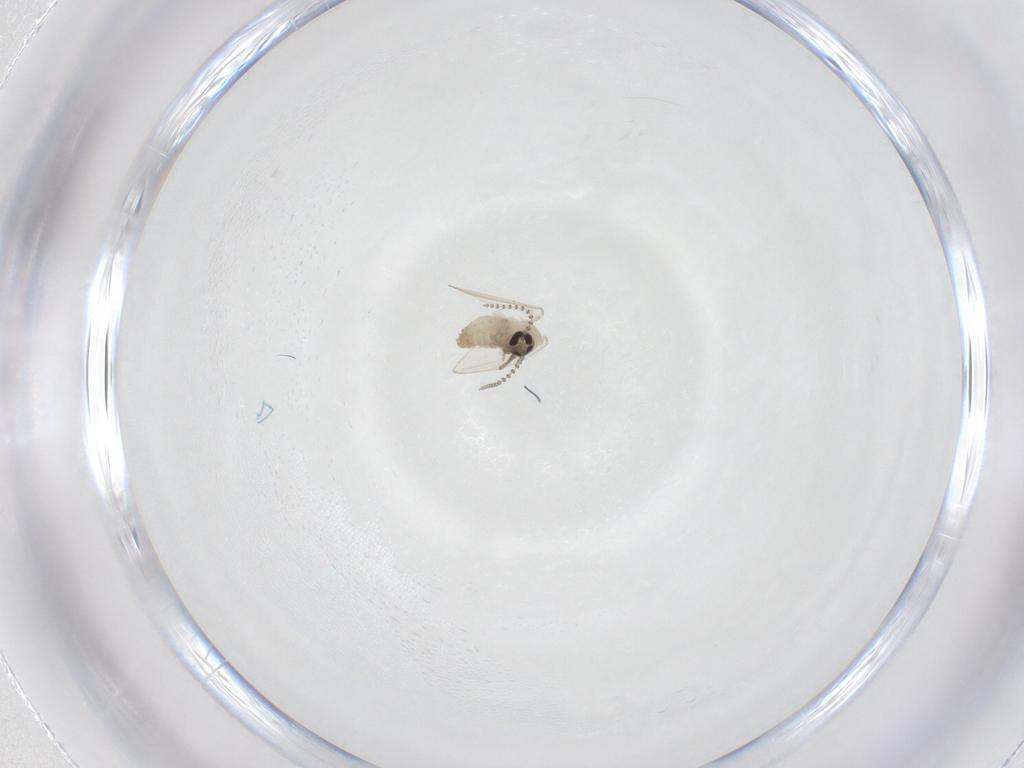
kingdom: Animalia
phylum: Arthropoda
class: Insecta
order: Diptera
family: Psychodidae
